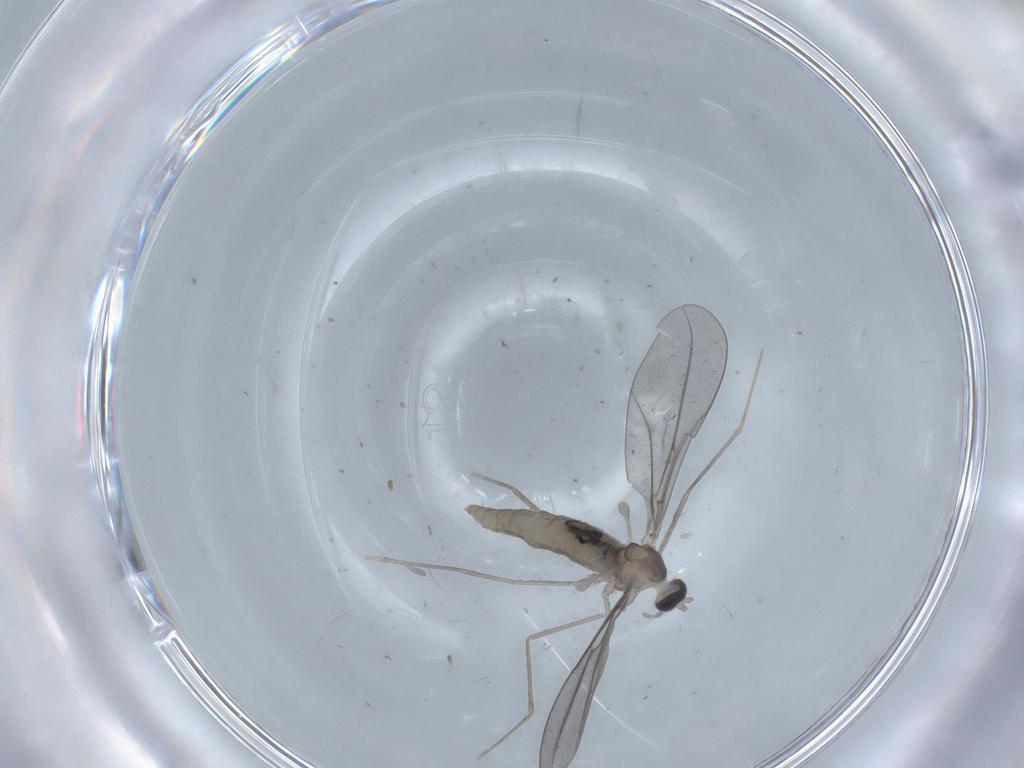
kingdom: Animalia
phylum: Arthropoda
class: Insecta
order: Diptera
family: Cecidomyiidae
